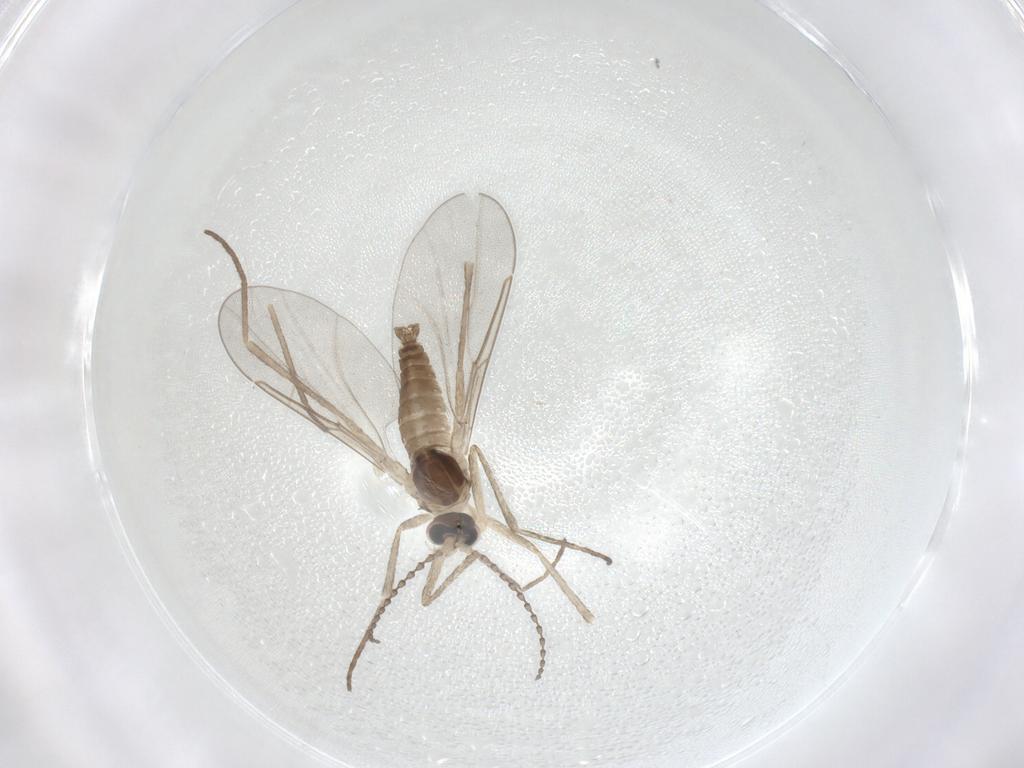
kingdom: Animalia
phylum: Arthropoda
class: Insecta
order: Diptera
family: Cecidomyiidae
